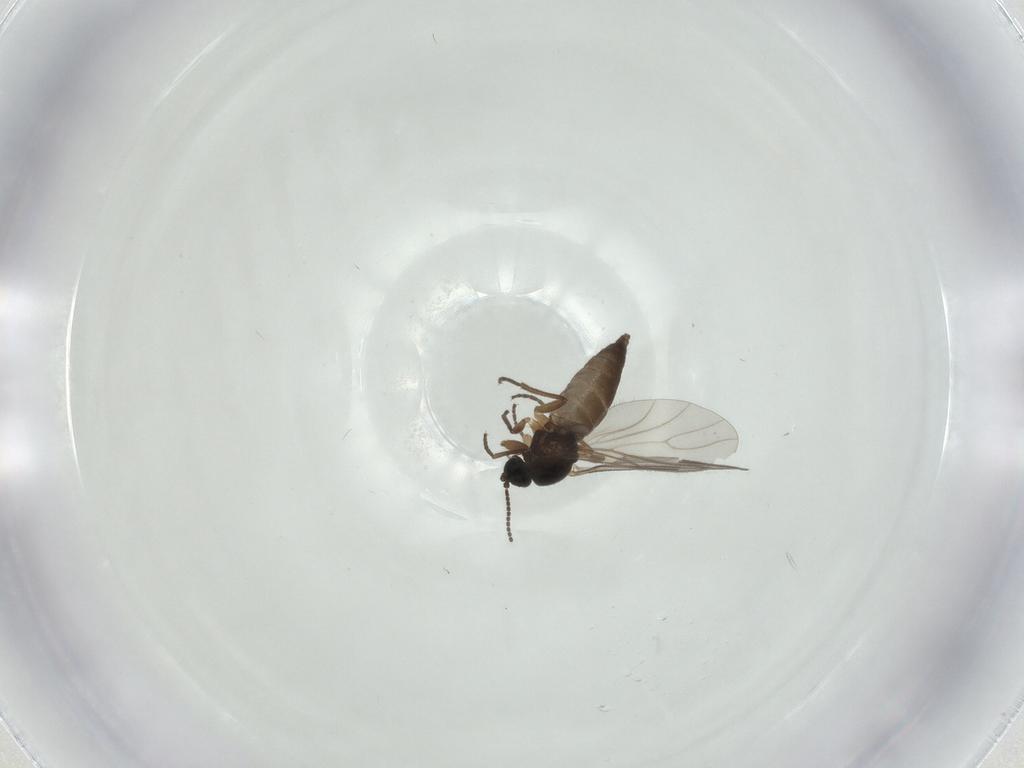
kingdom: Animalia
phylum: Arthropoda
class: Insecta
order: Diptera
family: Sciaridae
